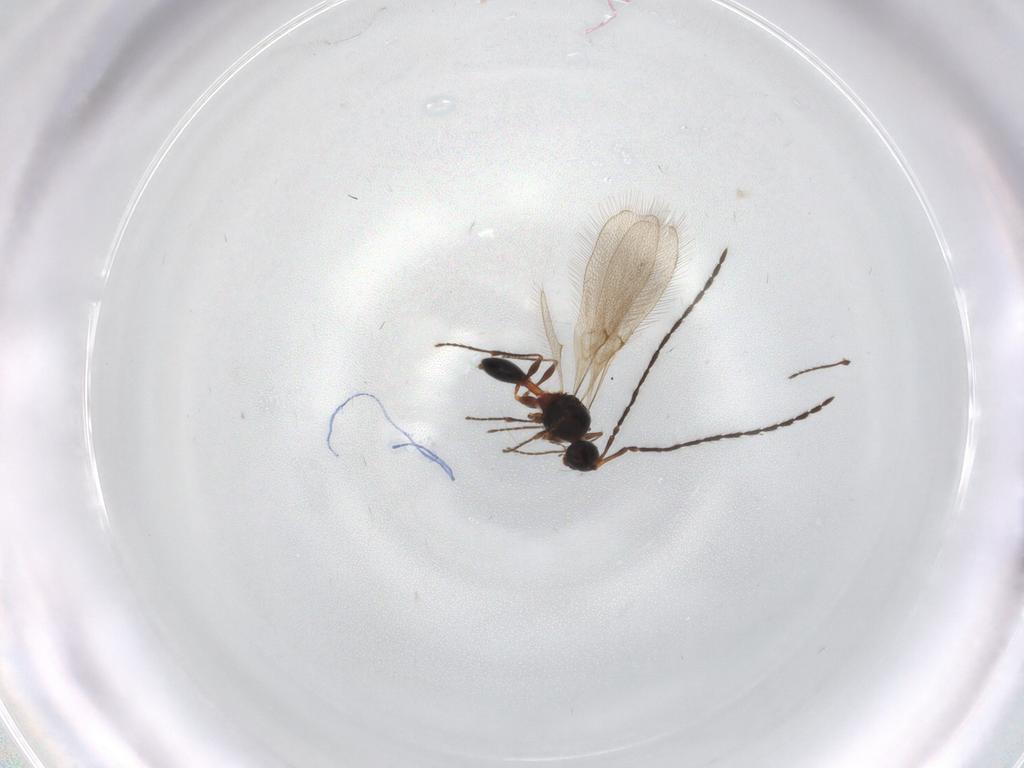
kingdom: Animalia
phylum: Arthropoda
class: Insecta
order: Hymenoptera
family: Diapriidae
